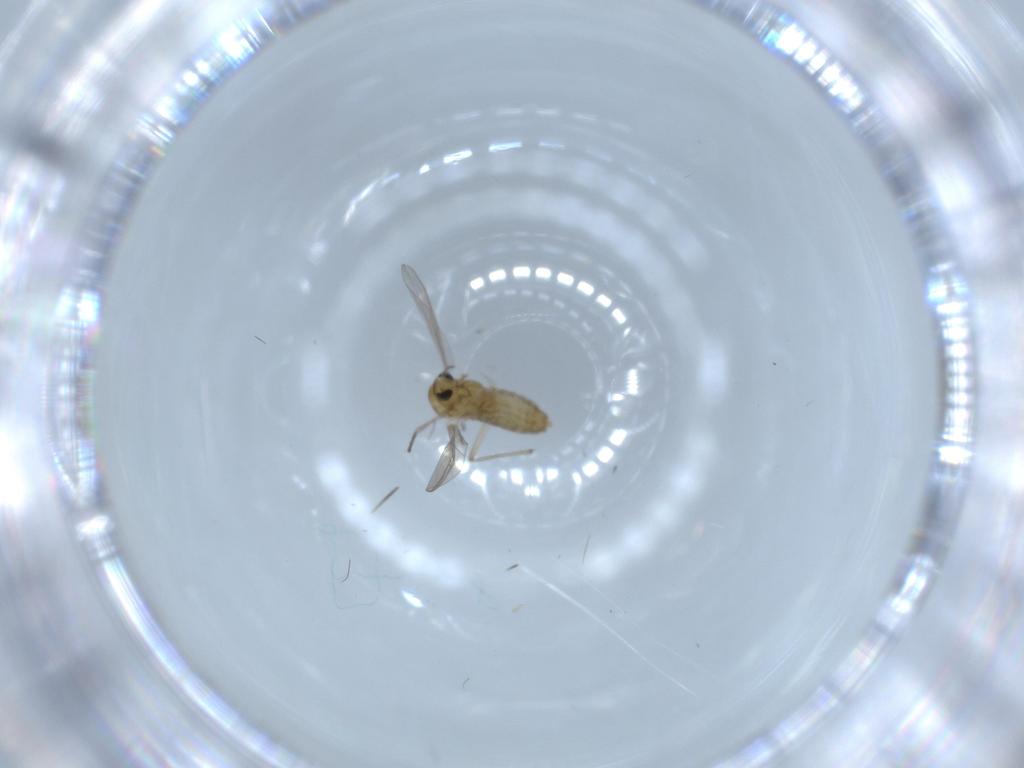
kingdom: Animalia
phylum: Arthropoda
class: Insecta
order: Diptera
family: Chironomidae
